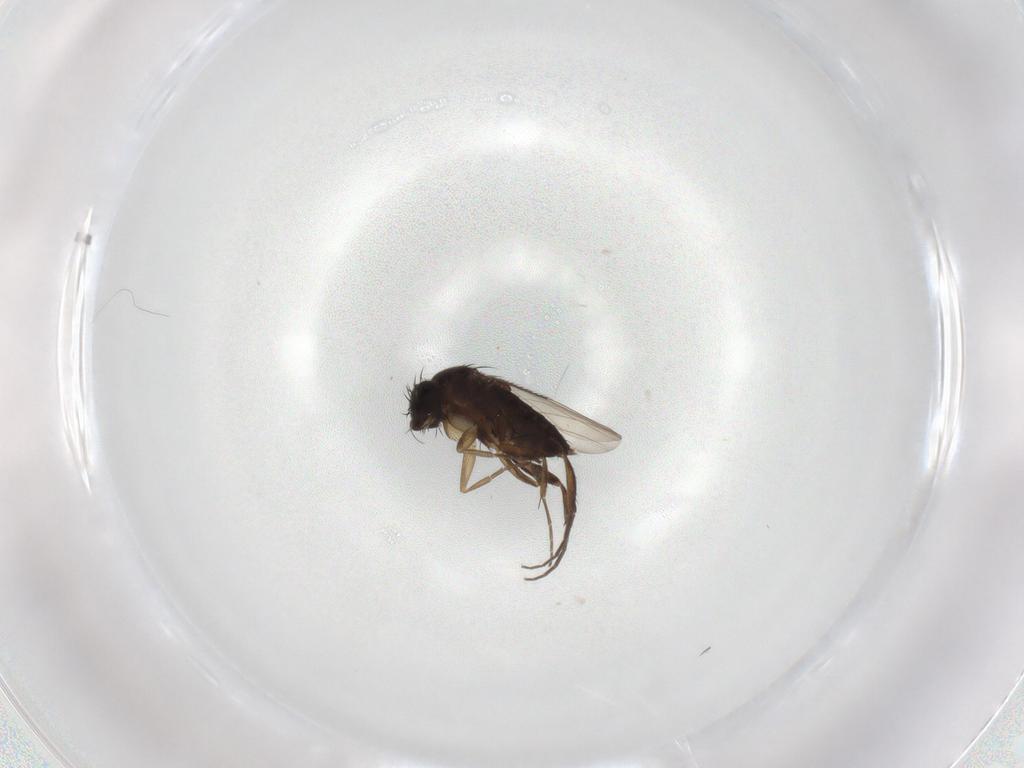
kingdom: Animalia
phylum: Arthropoda
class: Insecta
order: Diptera
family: Phoridae
